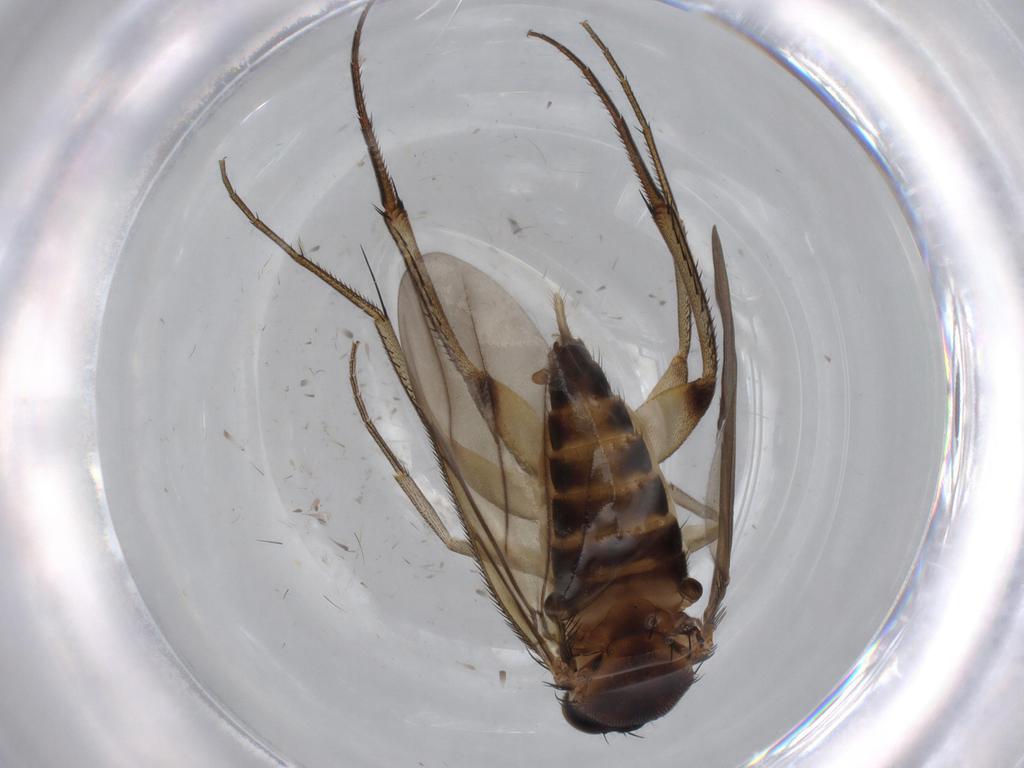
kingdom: Animalia
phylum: Arthropoda
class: Insecta
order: Diptera
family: Phoridae
